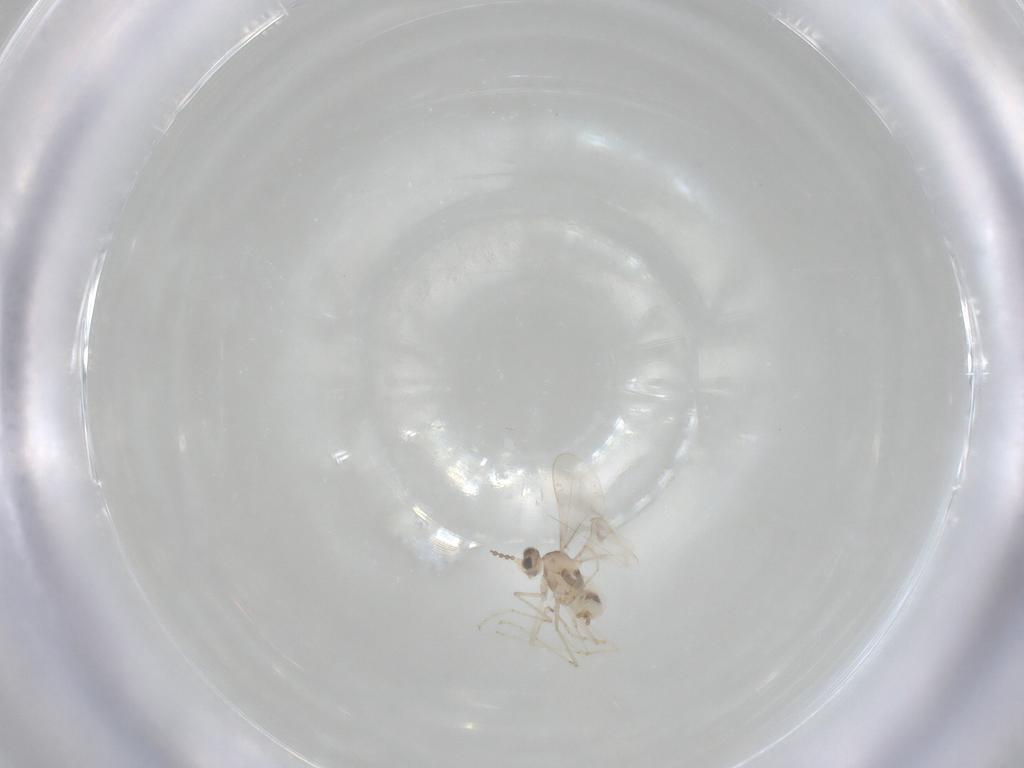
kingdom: Animalia
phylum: Arthropoda
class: Insecta
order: Diptera
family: Cecidomyiidae
